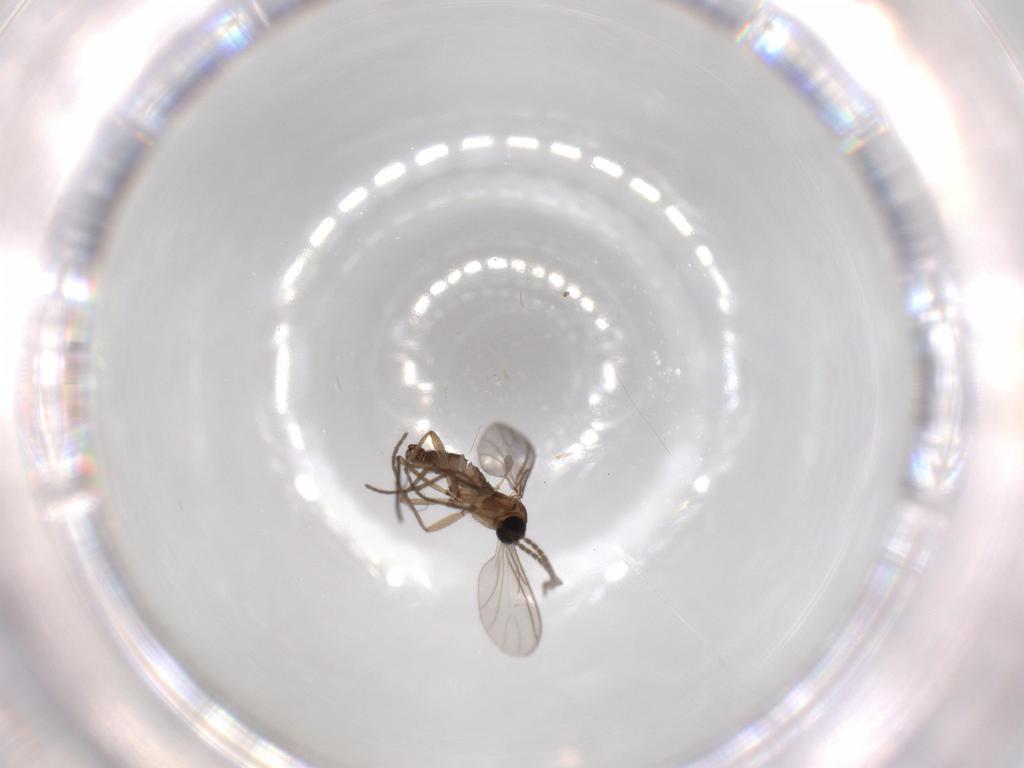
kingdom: Animalia
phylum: Arthropoda
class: Insecta
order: Diptera
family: Sciaridae
